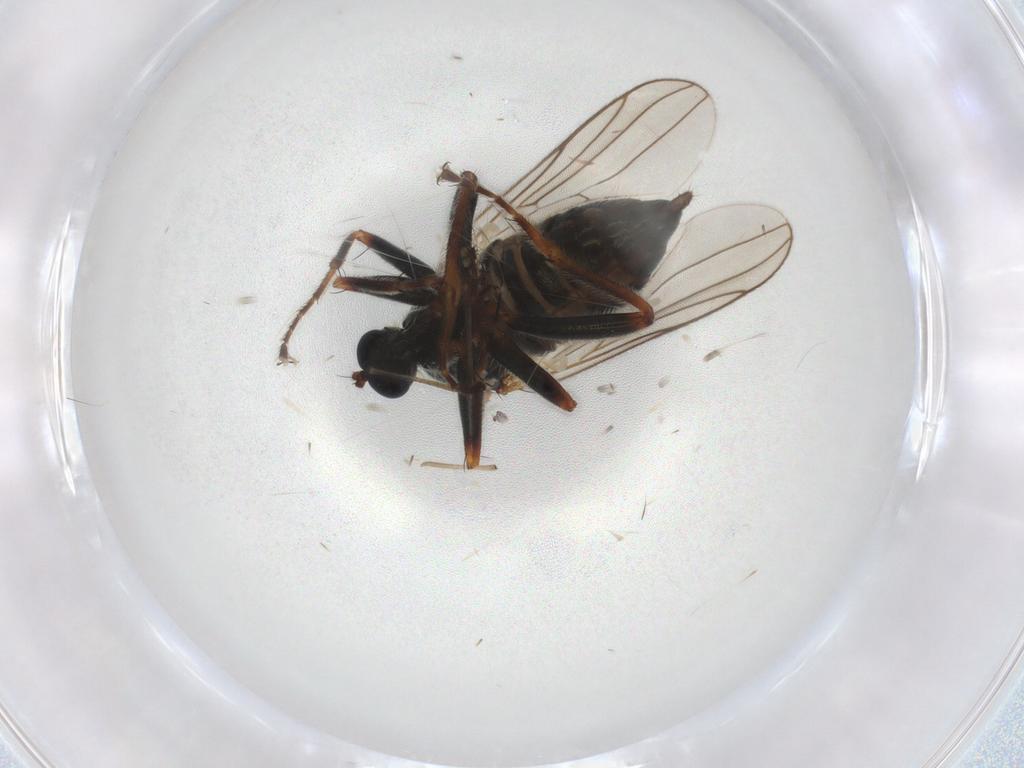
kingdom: Animalia
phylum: Arthropoda
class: Insecta
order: Diptera
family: Hybotidae
